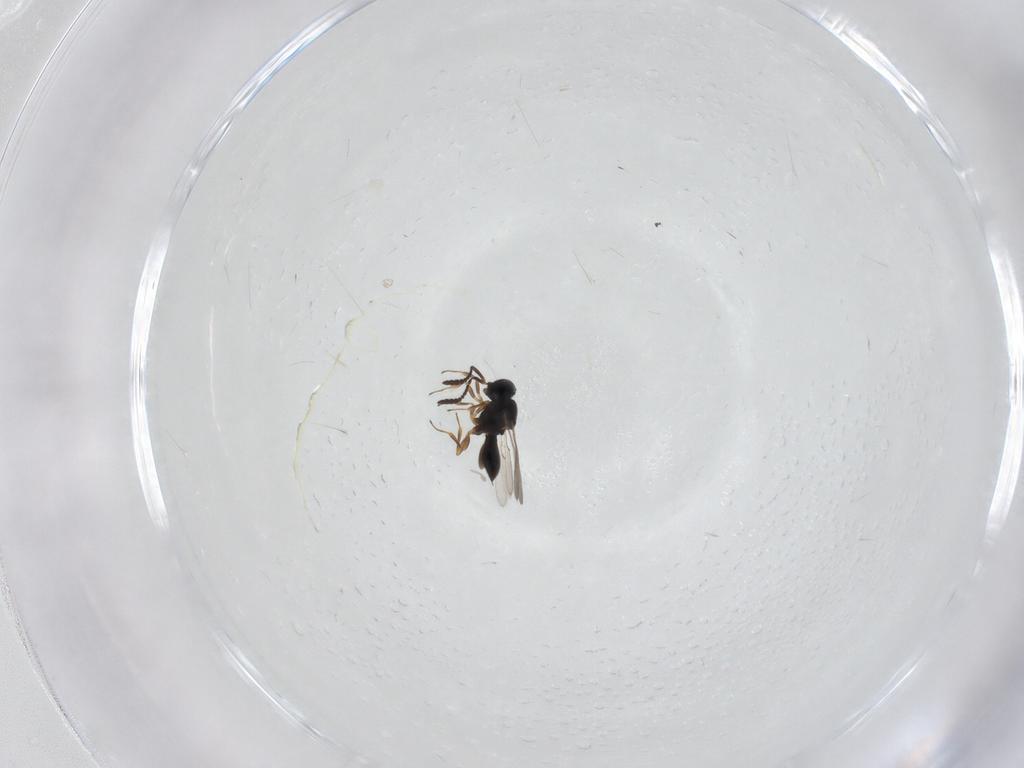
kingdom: Animalia
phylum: Arthropoda
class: Insecta
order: Hymenoptera
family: Scelionidae
